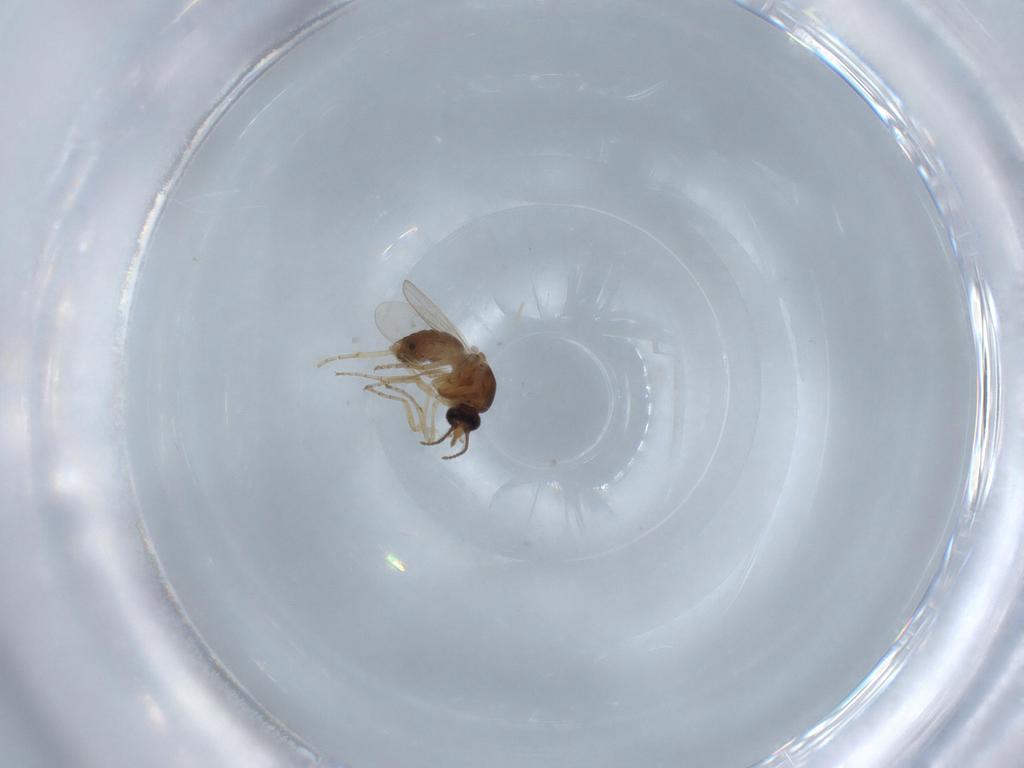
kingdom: Animalia
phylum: Arthropoda
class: Insecta
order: Diptera
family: Ceratopogonidae
